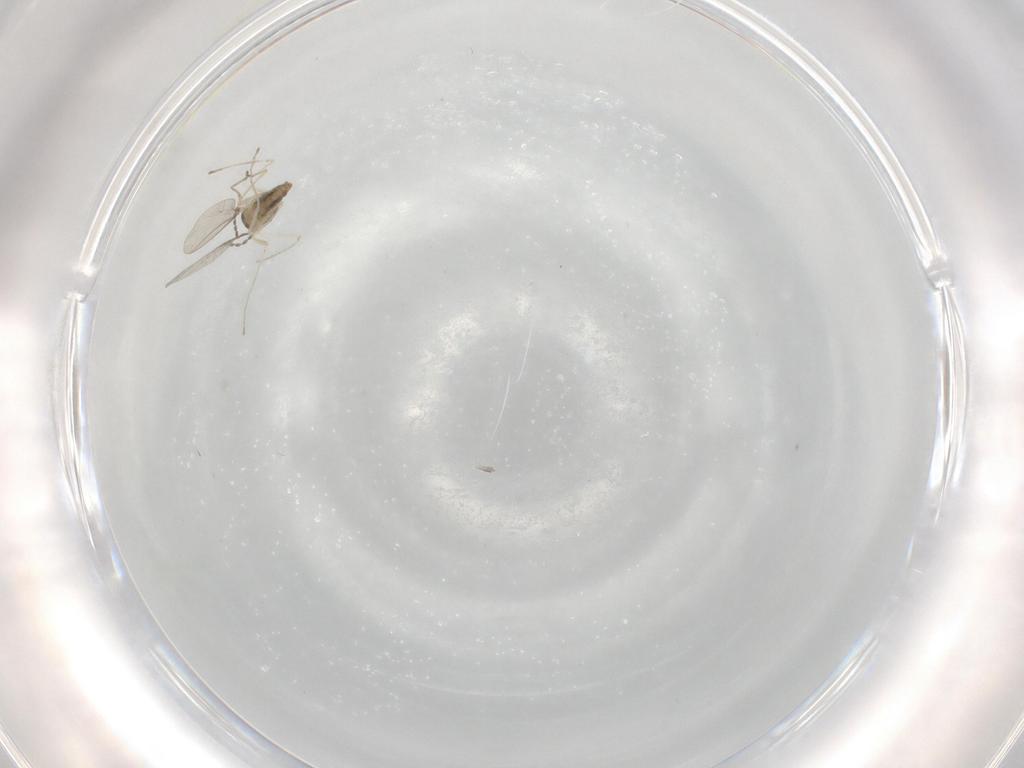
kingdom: Animalia
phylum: Arthropoda
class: Insecta
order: Diptera
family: Cecidomyiidae
